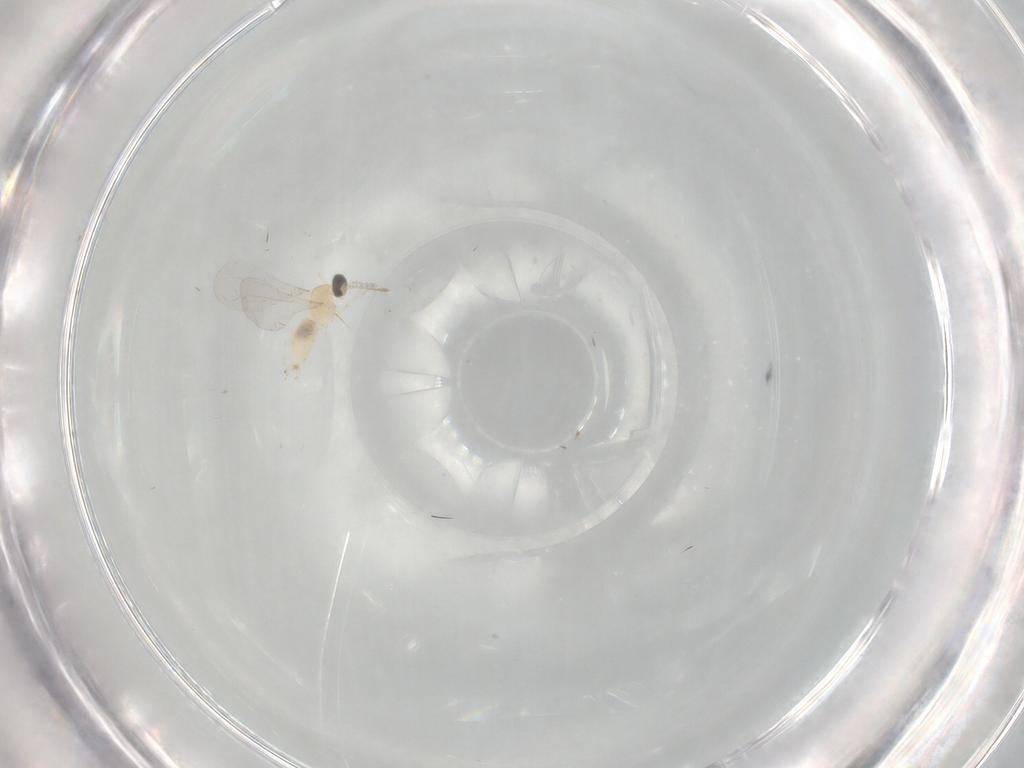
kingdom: Animalia
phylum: Arthropoda
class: Insecta
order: Diptera
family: Cecidomyiidae
